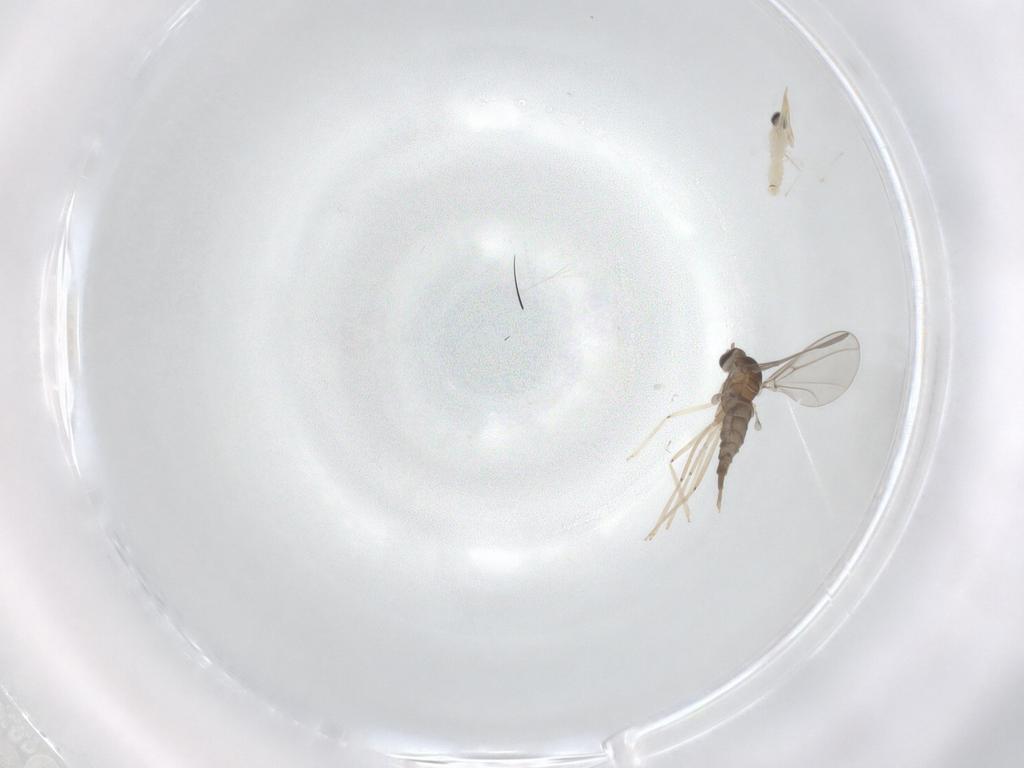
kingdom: Animalia
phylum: Arthropoda
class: Insecta
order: Diptera
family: Cecidomyiidae
